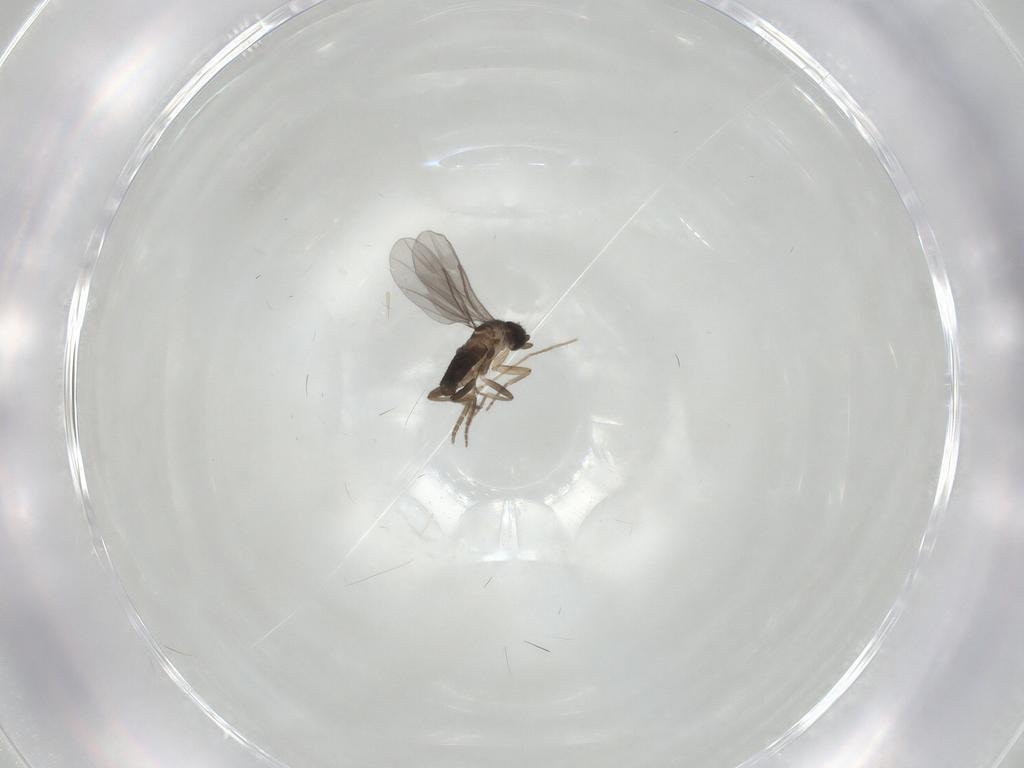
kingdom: Animalia
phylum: Arthropoda
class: Insecta
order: Diptera
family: Chironomidae
